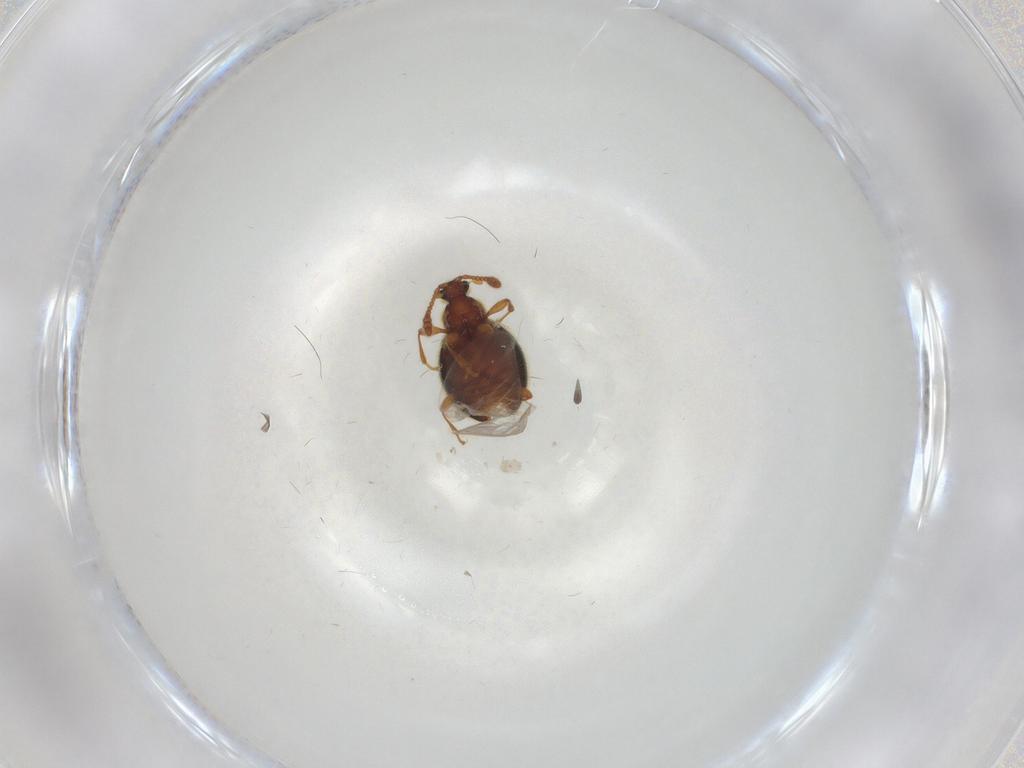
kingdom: Animalia
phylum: Arthropoda
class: Insecta
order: Coleoptera
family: Staphylinidae
